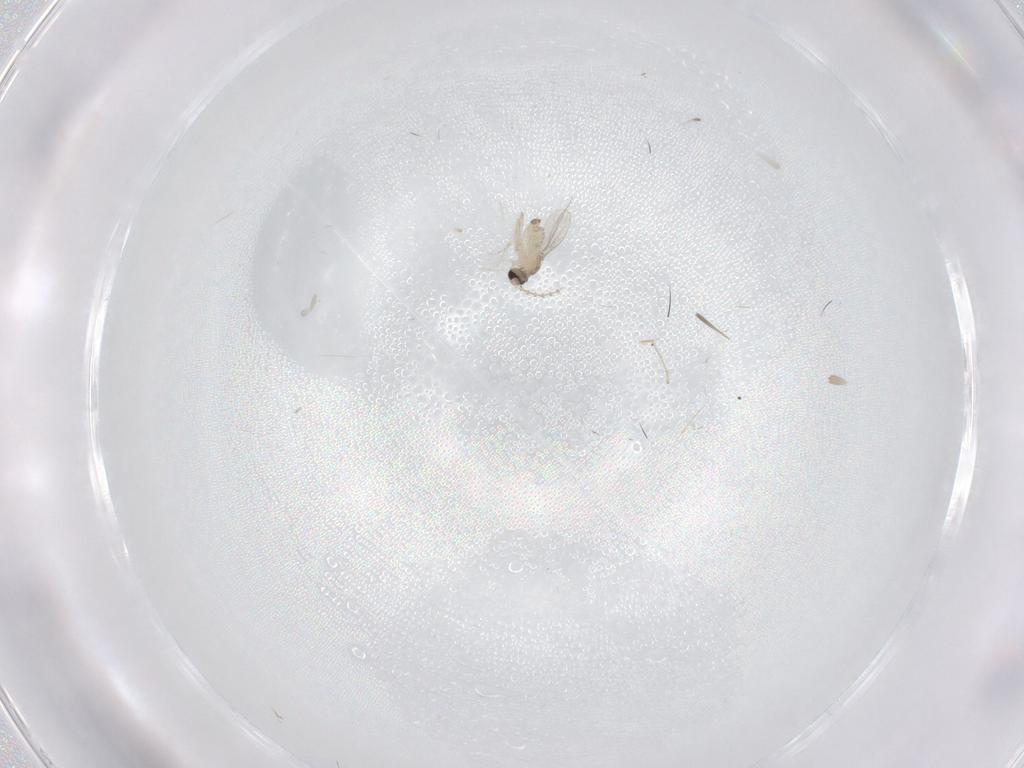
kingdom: Animalia
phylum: Arthropoda
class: Insecta
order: Diptera
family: Cecidomyiidae
